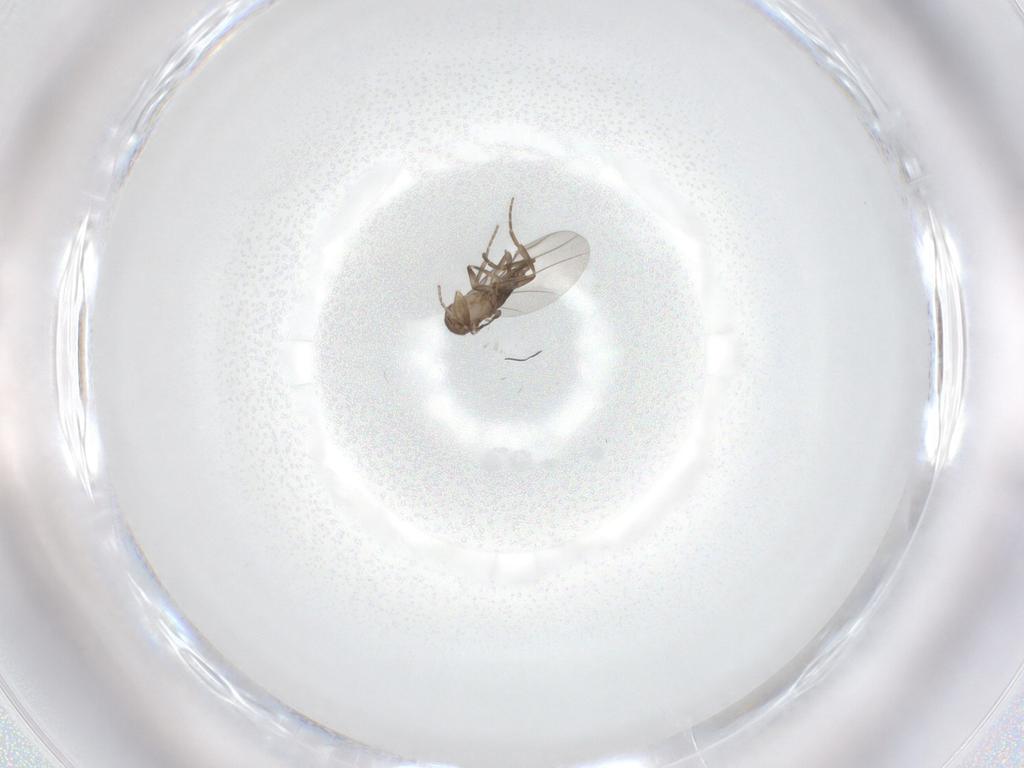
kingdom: Animalia
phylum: Arthropoda
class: Insecta
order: Diptera
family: Phoridae
